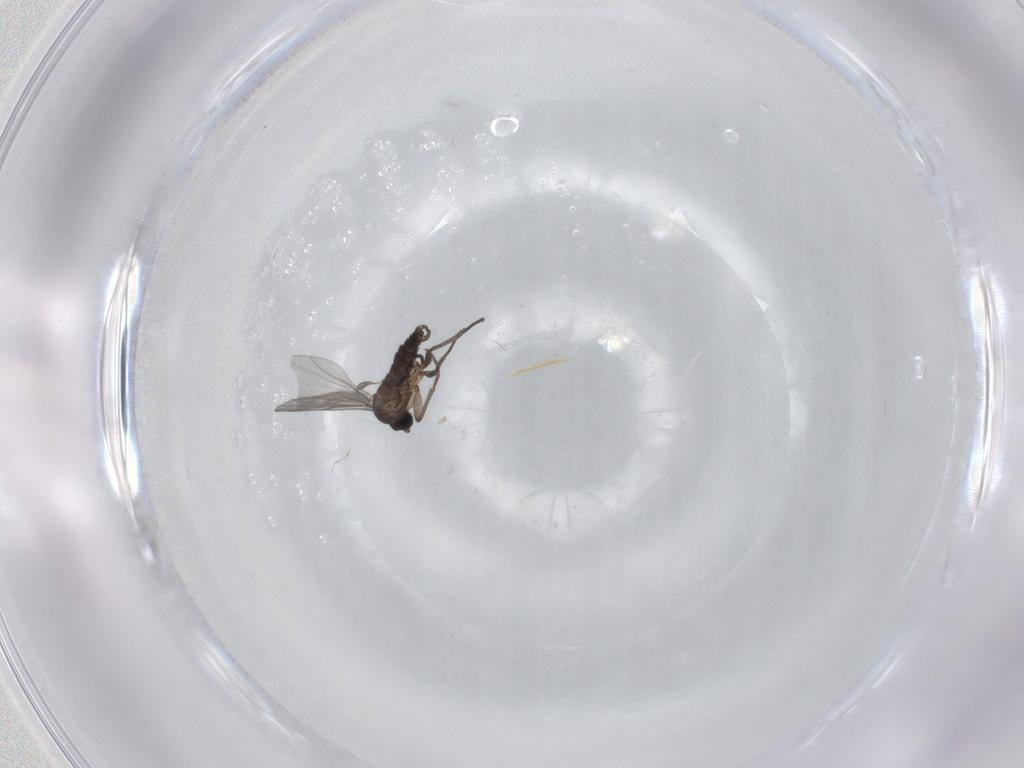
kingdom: Animalia
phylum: Arthropoda
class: Insecta
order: Diptera
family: Sciaridae
